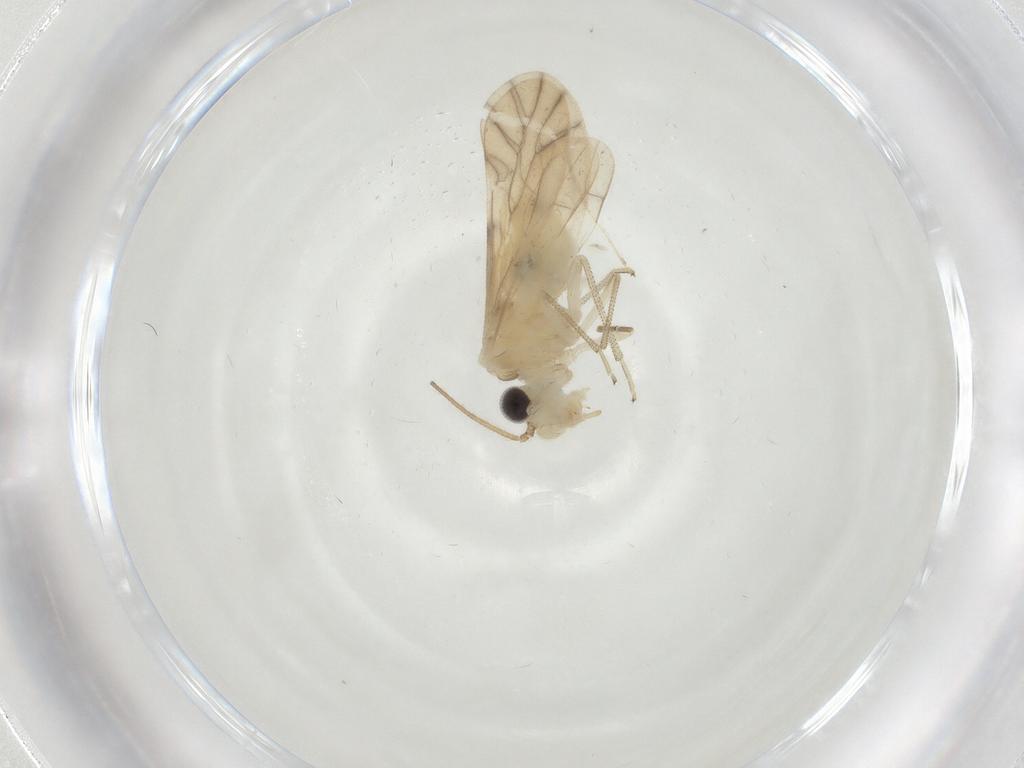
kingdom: Animalia
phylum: Arthropoda
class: Insecta
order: Psocodea
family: Caeciliusidae
